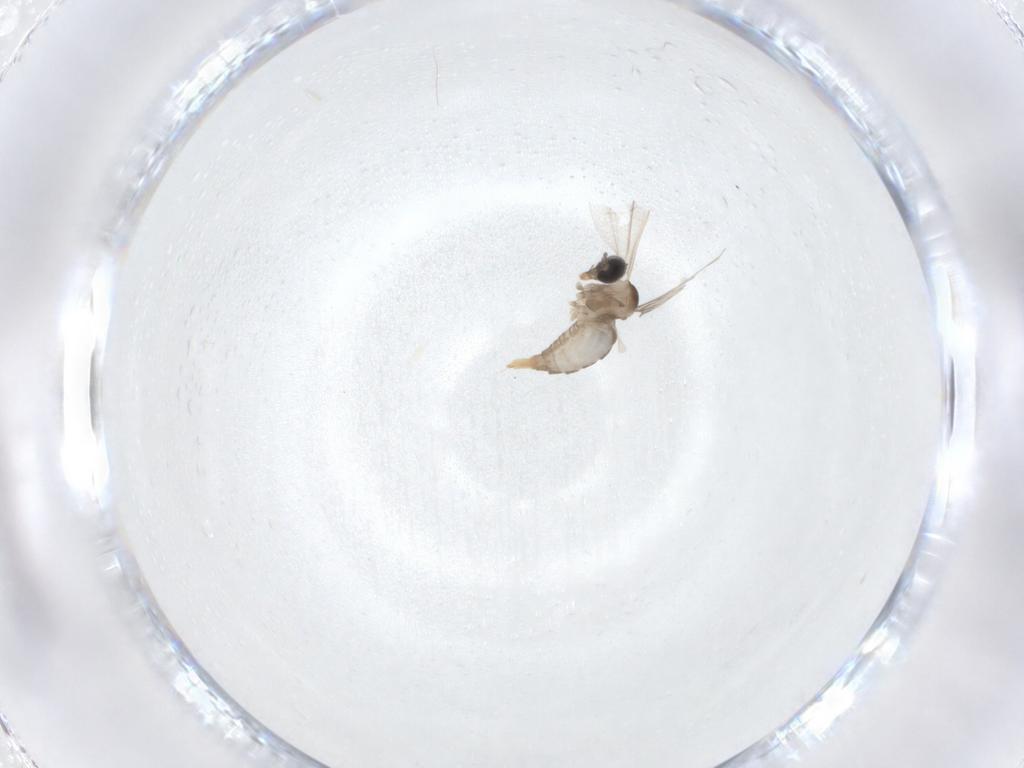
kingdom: Animalia
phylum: Arthropoda
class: Insecta
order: Diptera
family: Cecidomyiidae
